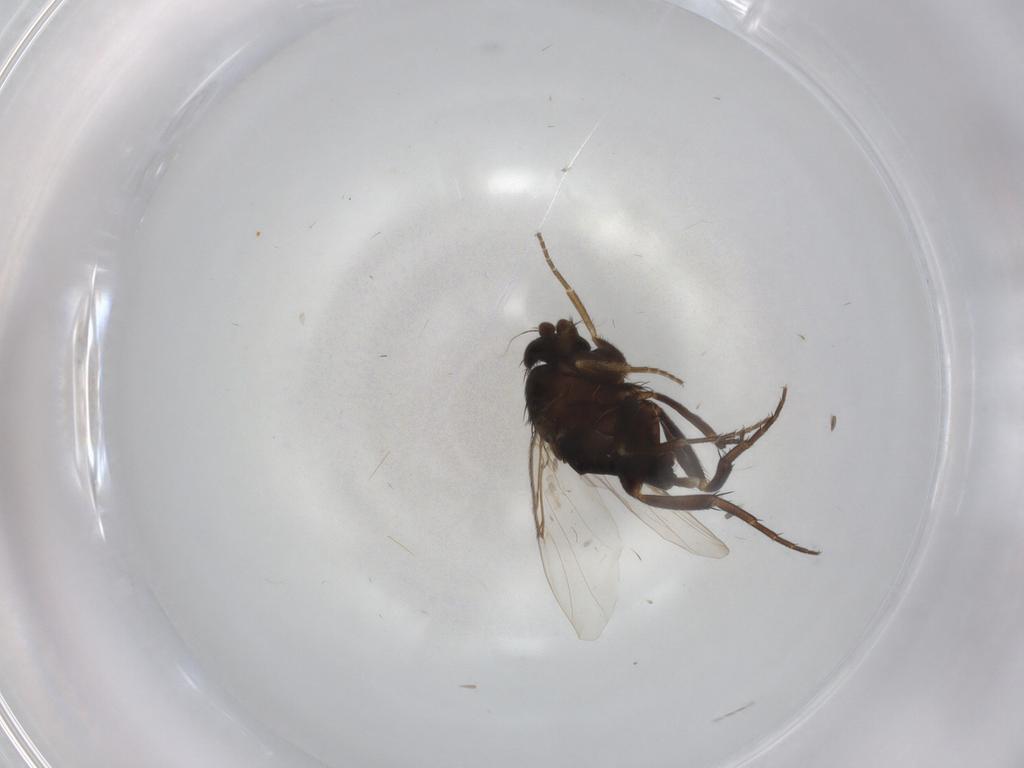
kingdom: Animalia
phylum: Arthropoda
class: Insecta
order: Diptera
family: Phoridae
